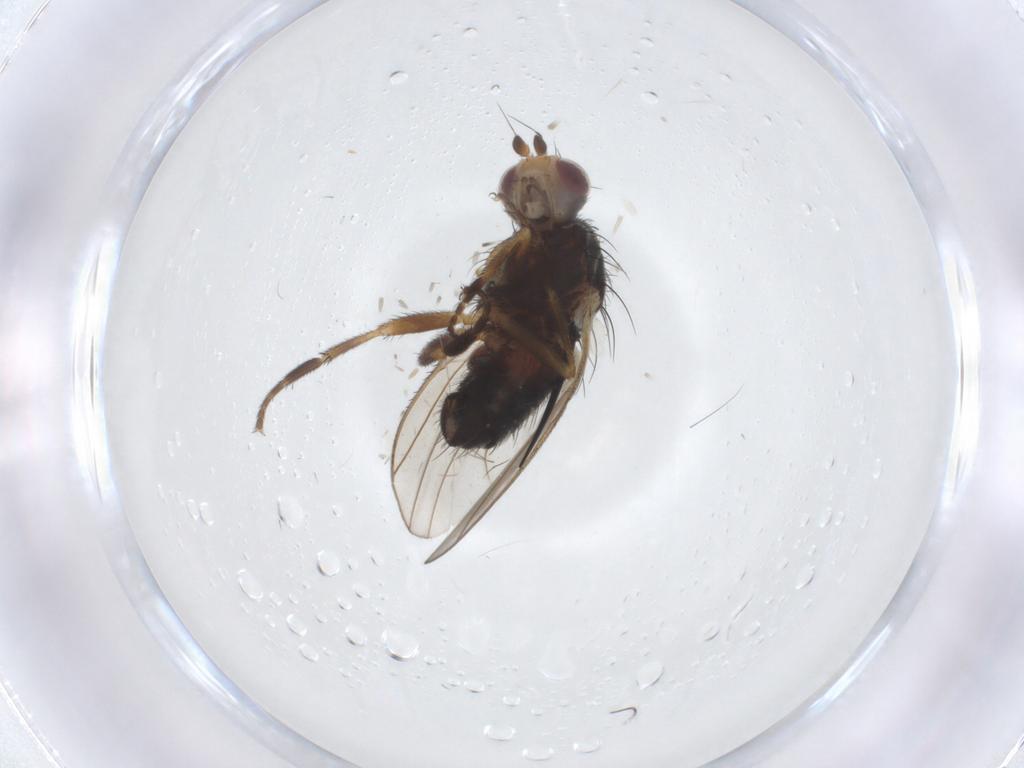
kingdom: Animalia
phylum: Arthropoda
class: Insecta
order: Diptera
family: Heleomyzidae
